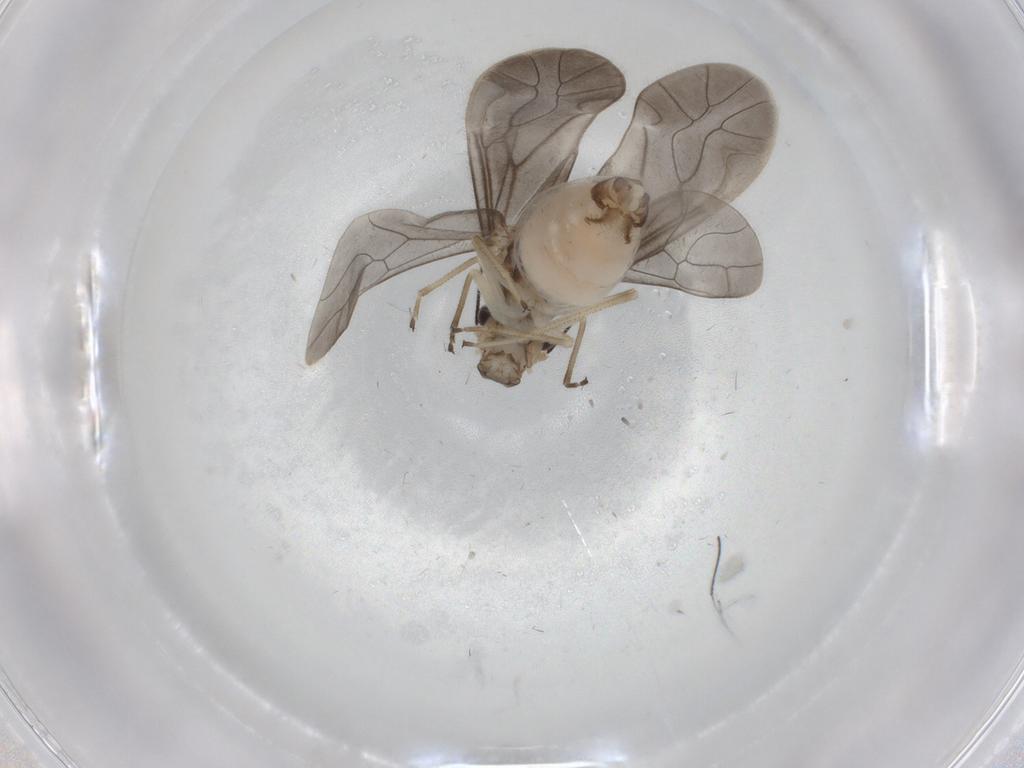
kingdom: Animalia
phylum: Arthropoda
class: Insecta
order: Psocodea
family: Caeciliusidae
